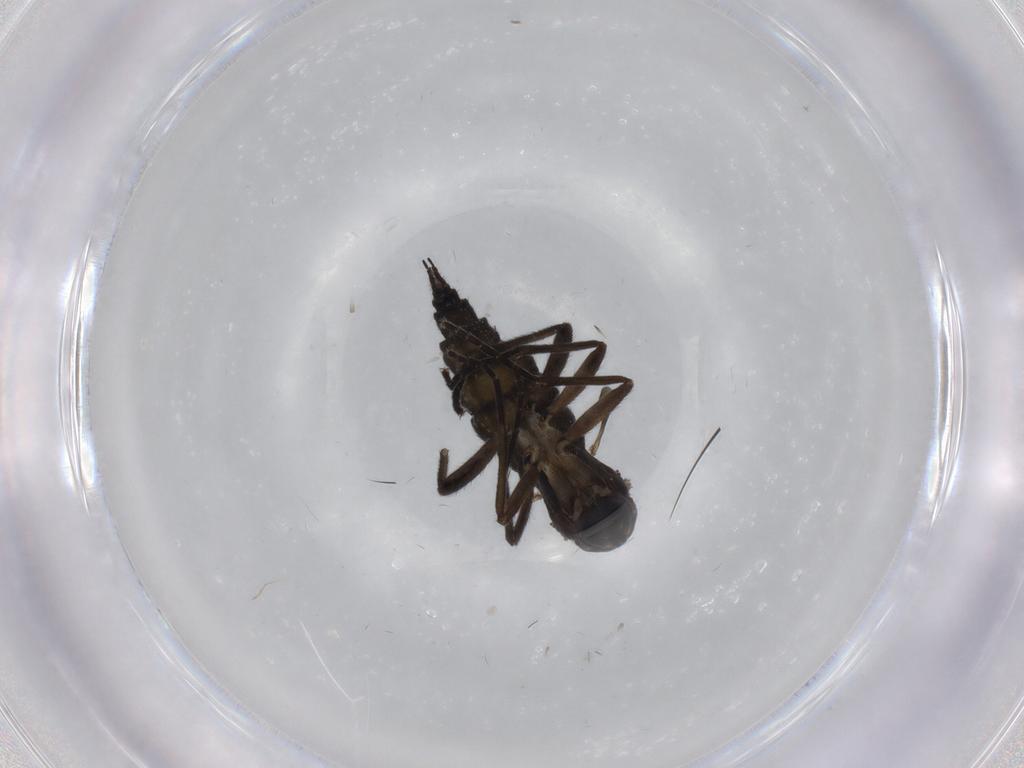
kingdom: Animalia
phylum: Arthropoda
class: Insecta
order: Diptera
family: Sciaridae
